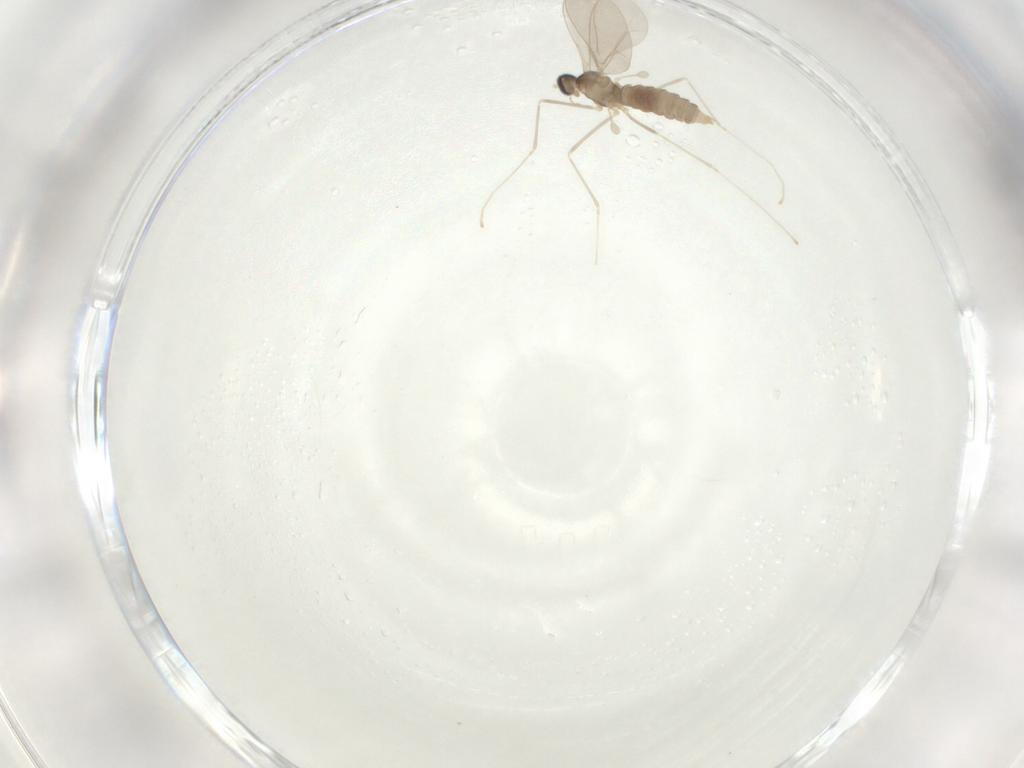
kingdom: Animalia
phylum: Arthropoda
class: Insecta
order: Diptera
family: Cecidomyiidae
